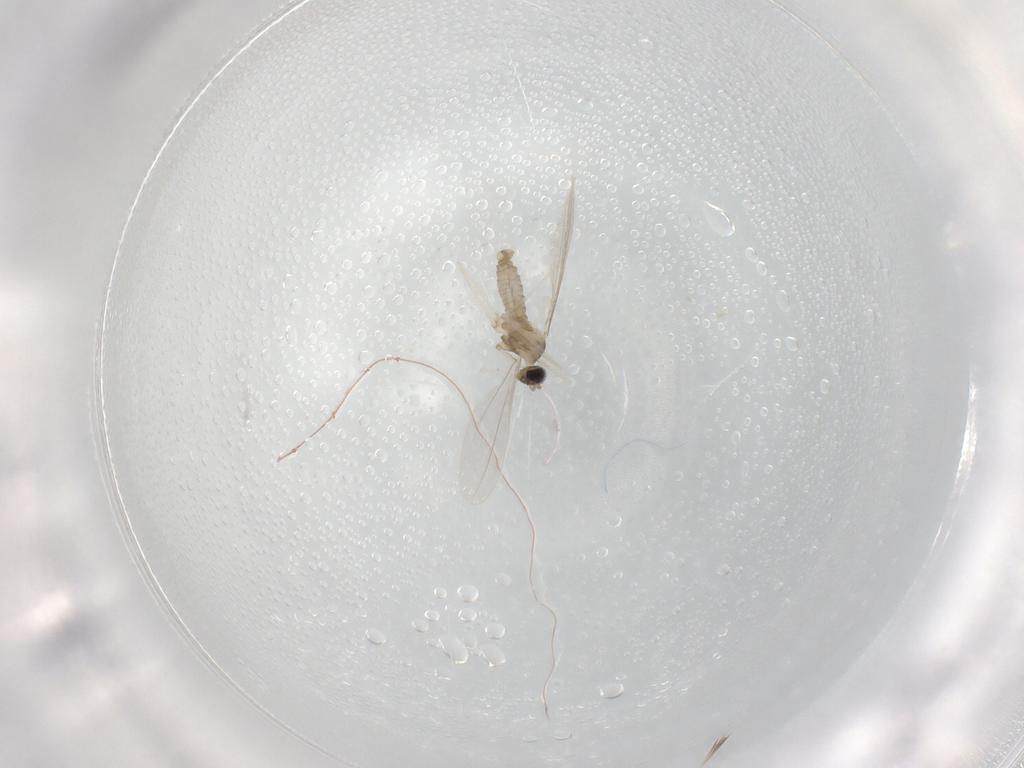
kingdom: Animalia
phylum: Arthropoda
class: Insecta
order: Diptera
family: Cecidomyiidae
